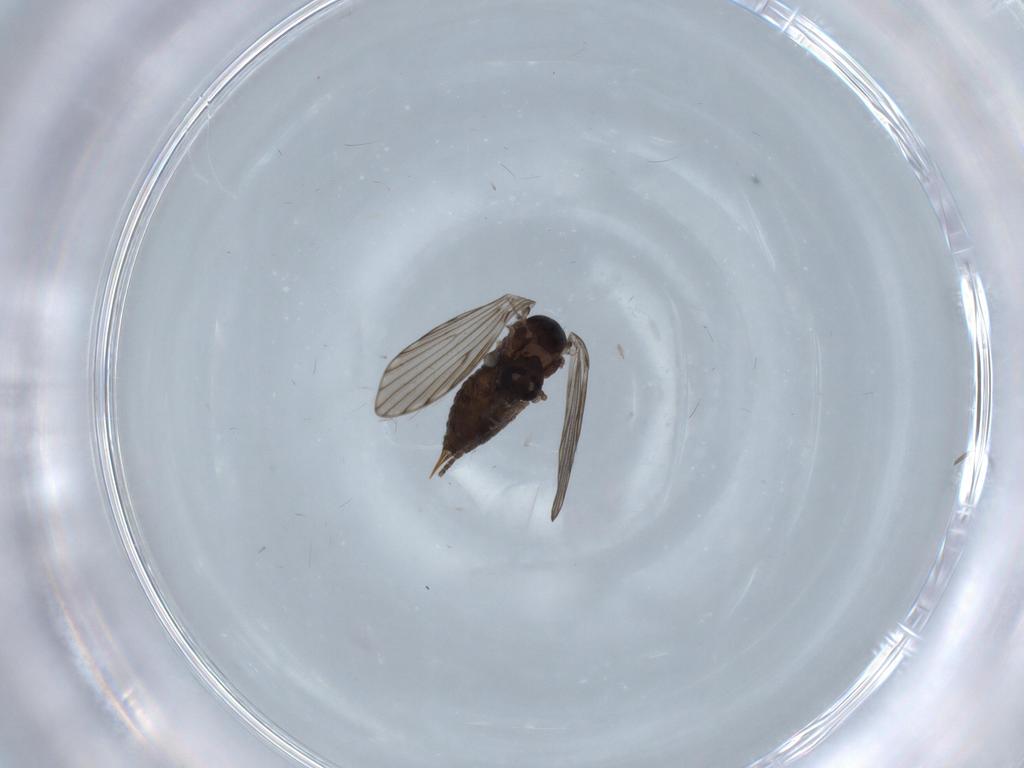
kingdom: Animalia
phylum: Arthropoda
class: Insecta
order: Diptera
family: Psychodidae
